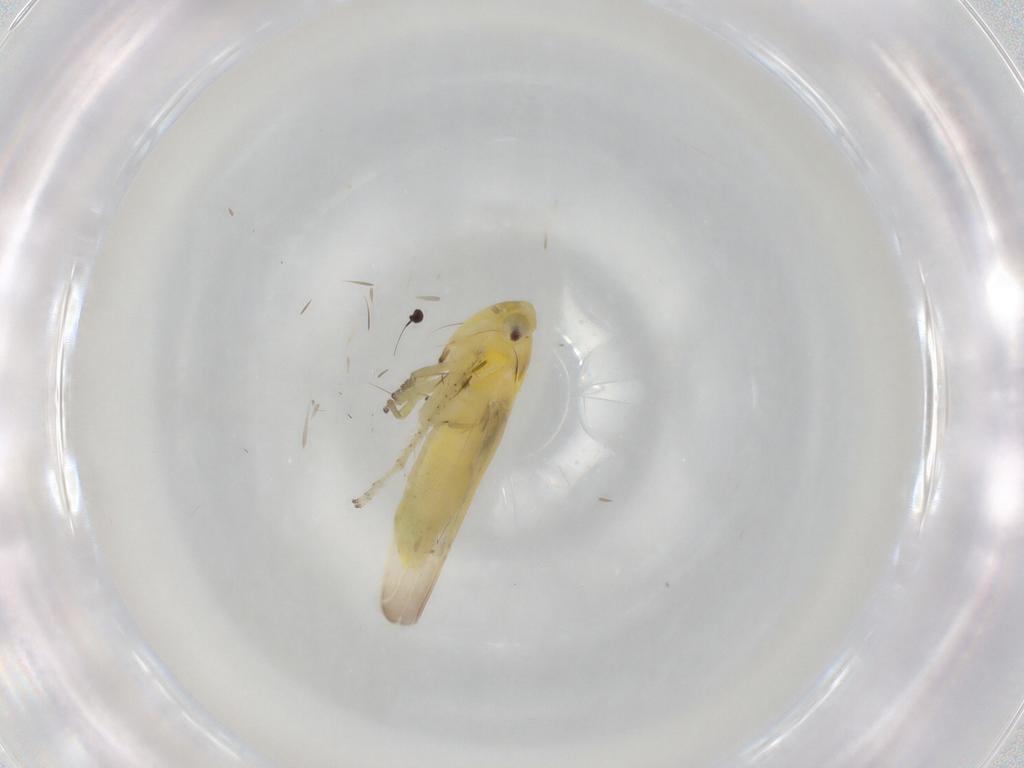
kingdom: Animalia
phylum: Arthropoda
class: Insecta
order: Hemiptera
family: Cicadellidae
